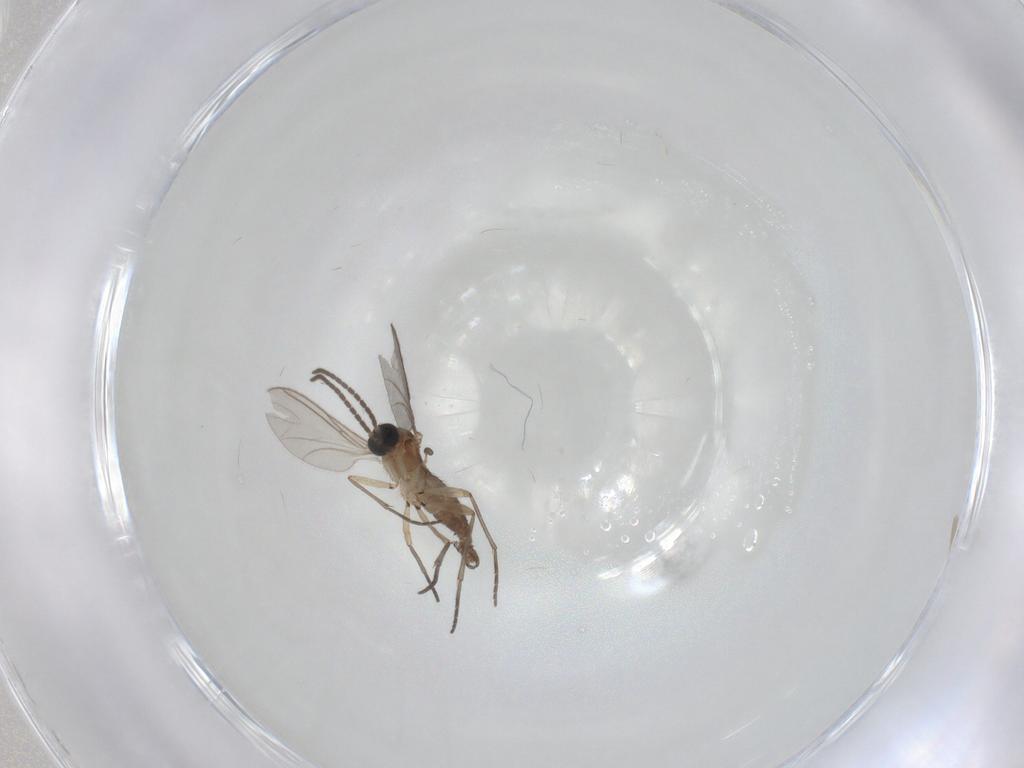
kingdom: Animalia
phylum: Arthropoda
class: Insecta
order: Diptera
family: Sciaridae
